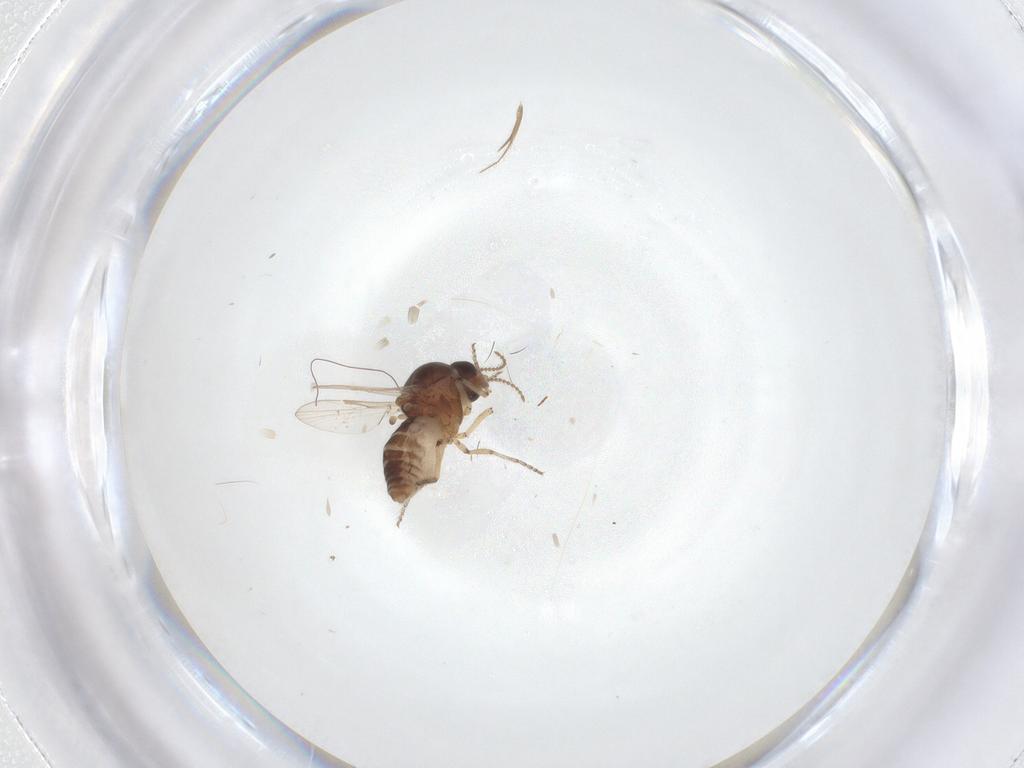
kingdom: Animalia
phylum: Arthropoda
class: Insecta
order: Diptera
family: Ceratopogonidae
